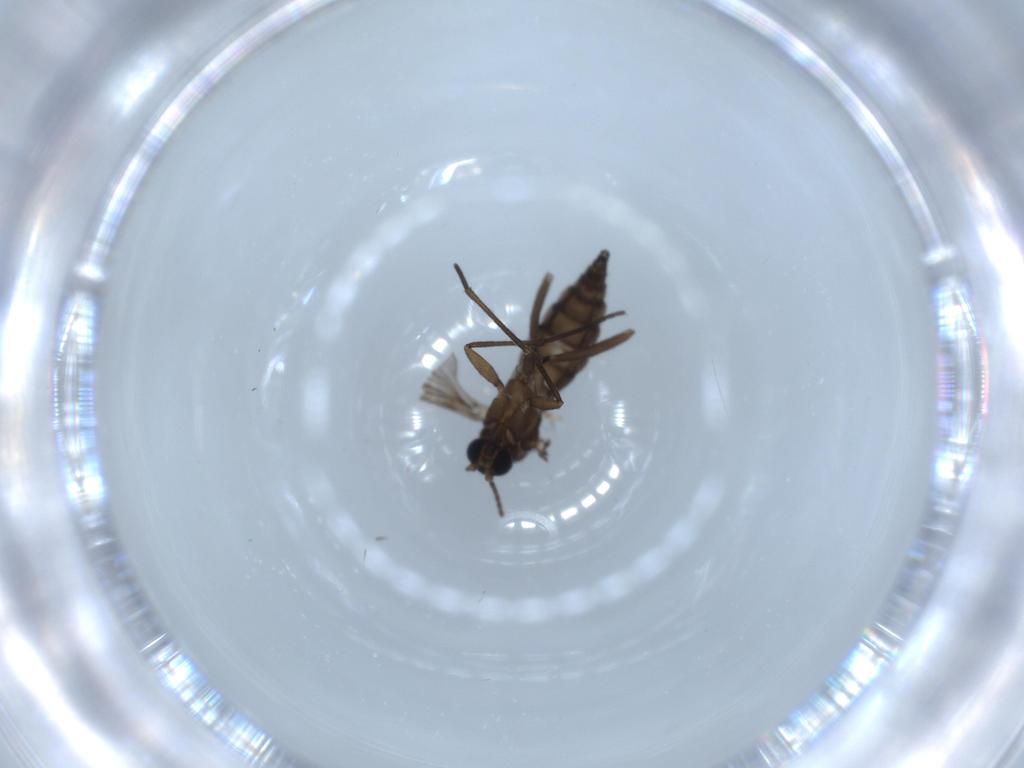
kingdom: Animalia
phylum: Arthropoda
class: Insecta
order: Diptera
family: Sciaridae
